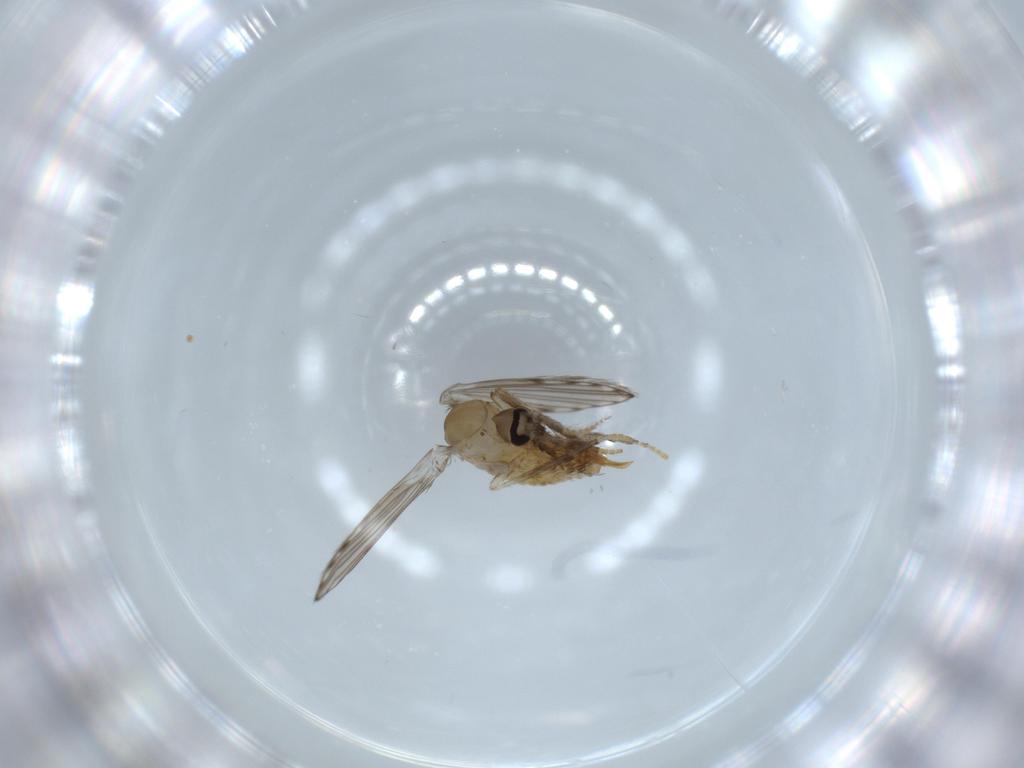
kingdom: Animalia
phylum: Arthropoda
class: Insecta
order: Diptera
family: Psychodidae
